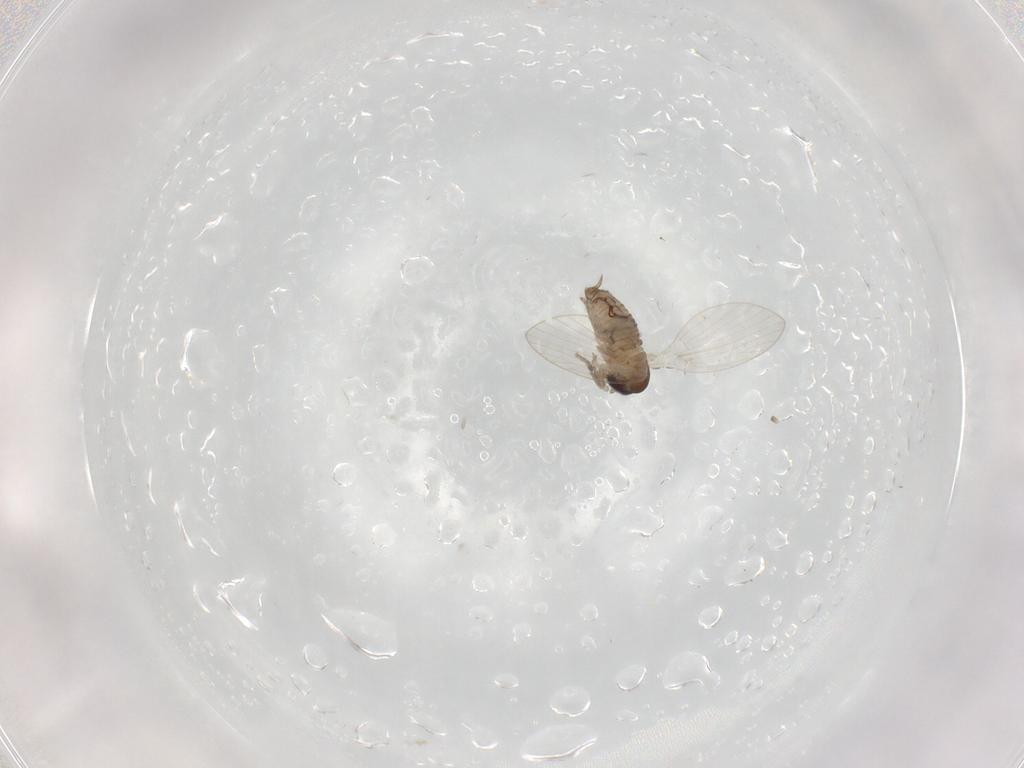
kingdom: Animalia
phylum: Arthropoda
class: Insecta
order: Diptera
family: Psychodidae
